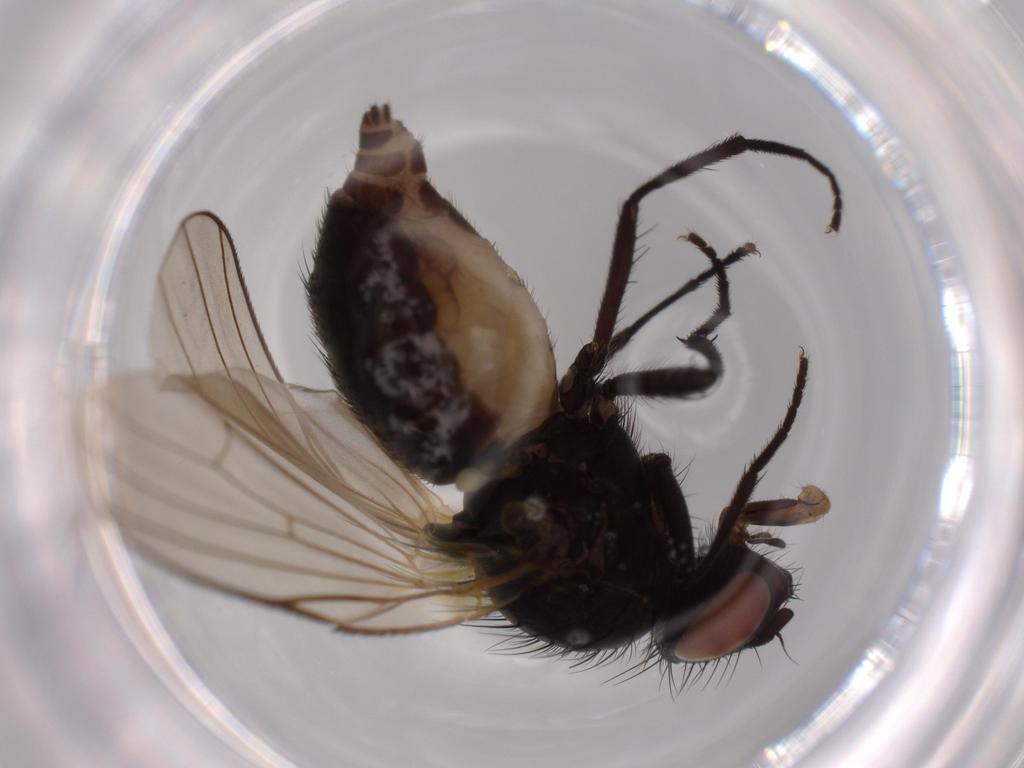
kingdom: Animalia
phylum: Arthropoda
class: Insecta
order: Diptera
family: Chironomidae
